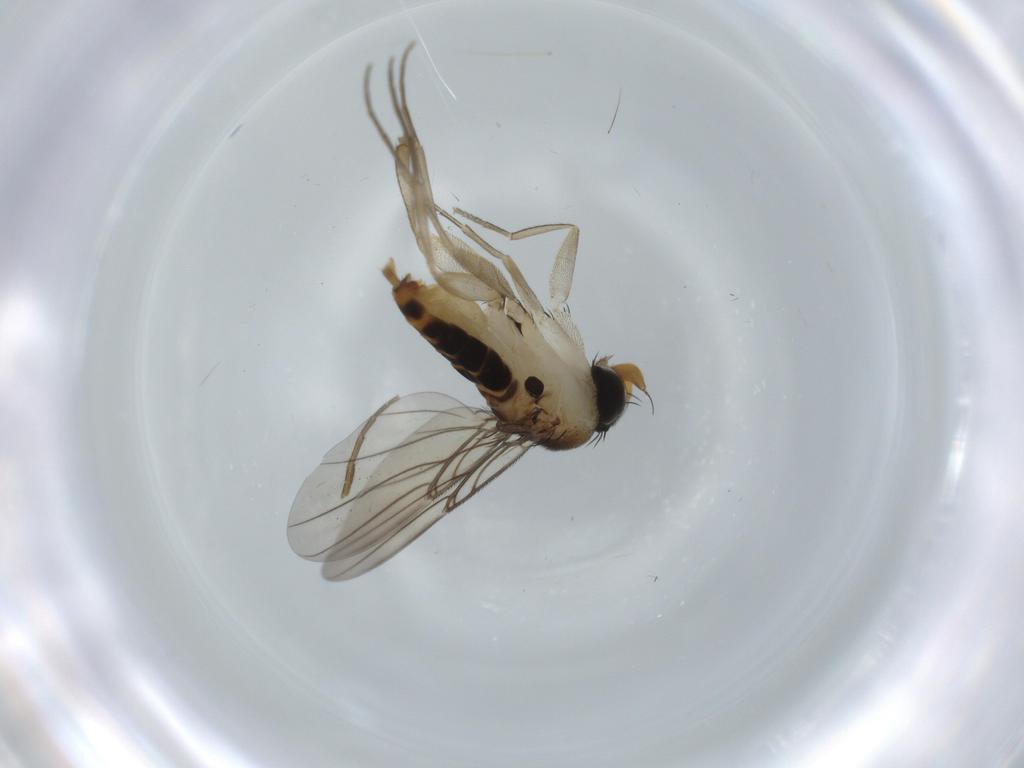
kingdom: Animalia
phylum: Arthropoda
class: Insecta
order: Diptera
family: Phoridae
